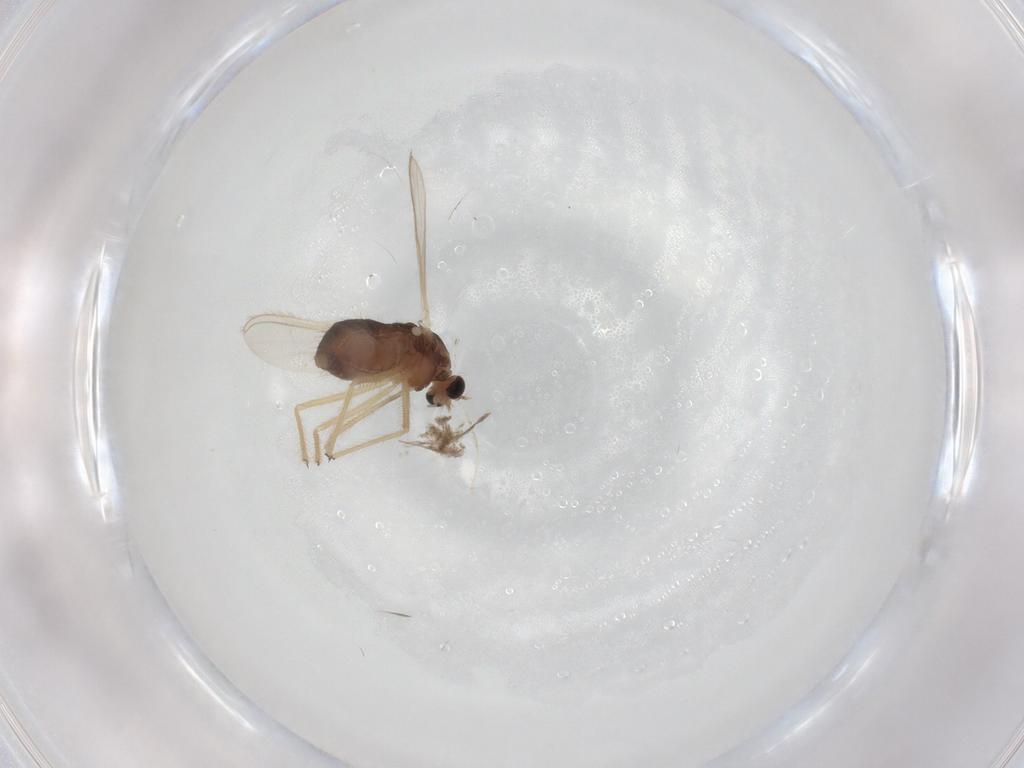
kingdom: Animalia
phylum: Arthropoda
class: Insecta
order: Diptera
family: Chironomidae
